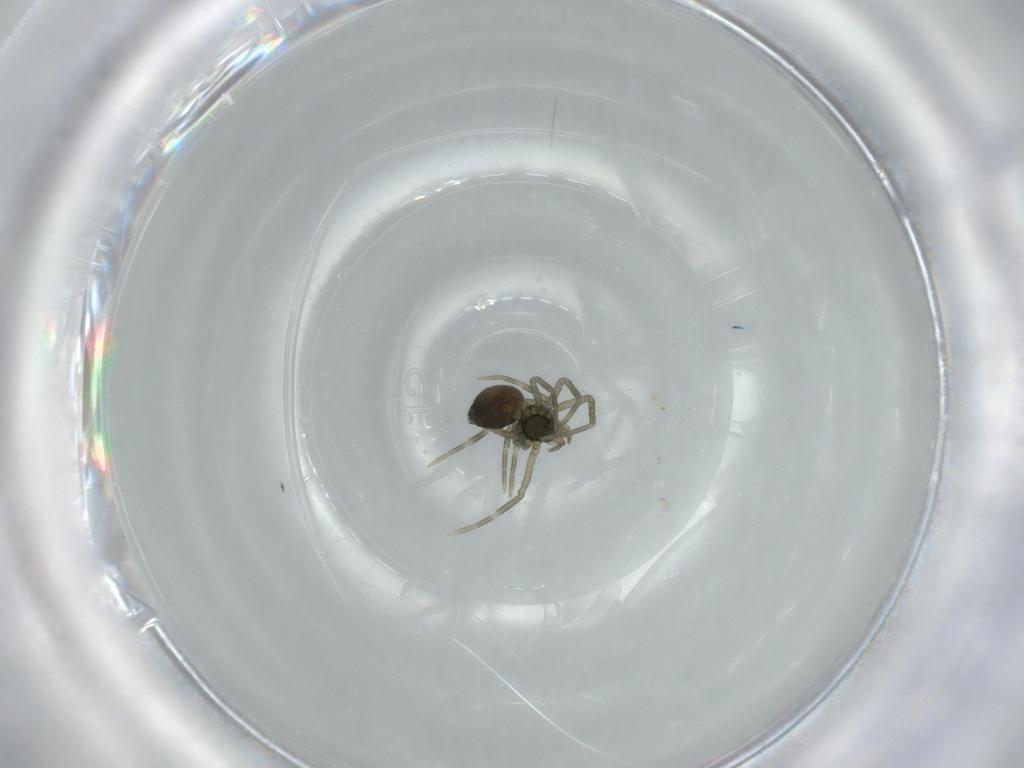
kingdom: Animalia
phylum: Arthropoda
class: Arachnida
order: Araneae
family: Linyphiidae
